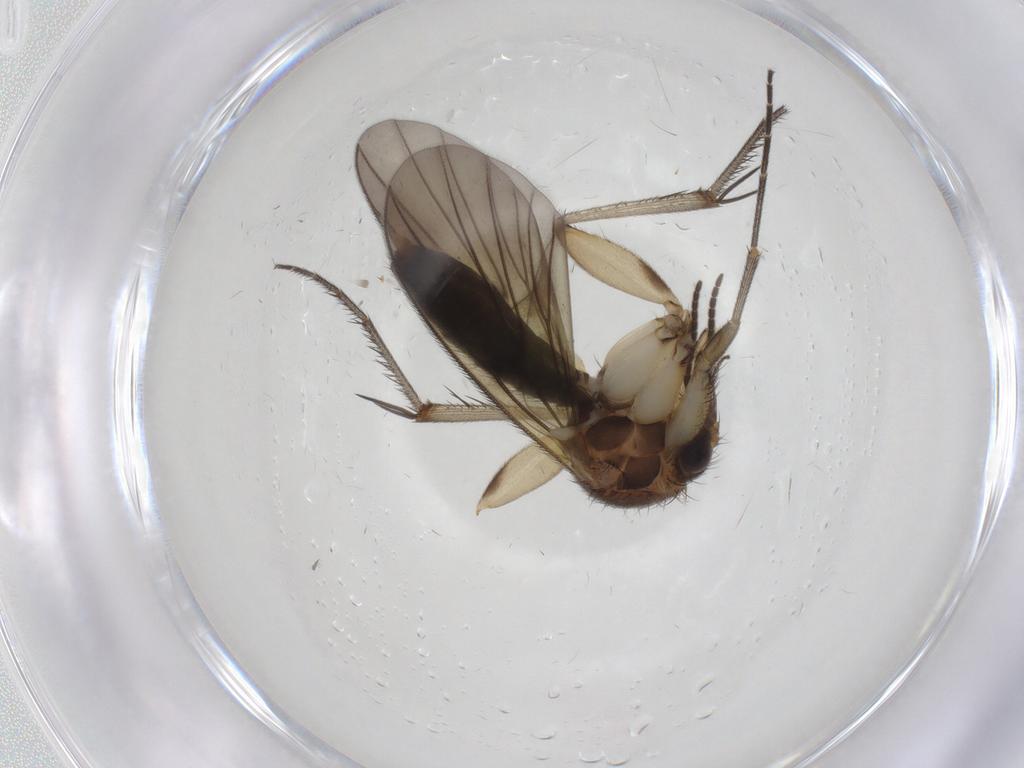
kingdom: Animalia
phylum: Arthropoda
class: Insecta
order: Diptera
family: Mycetophilidae
